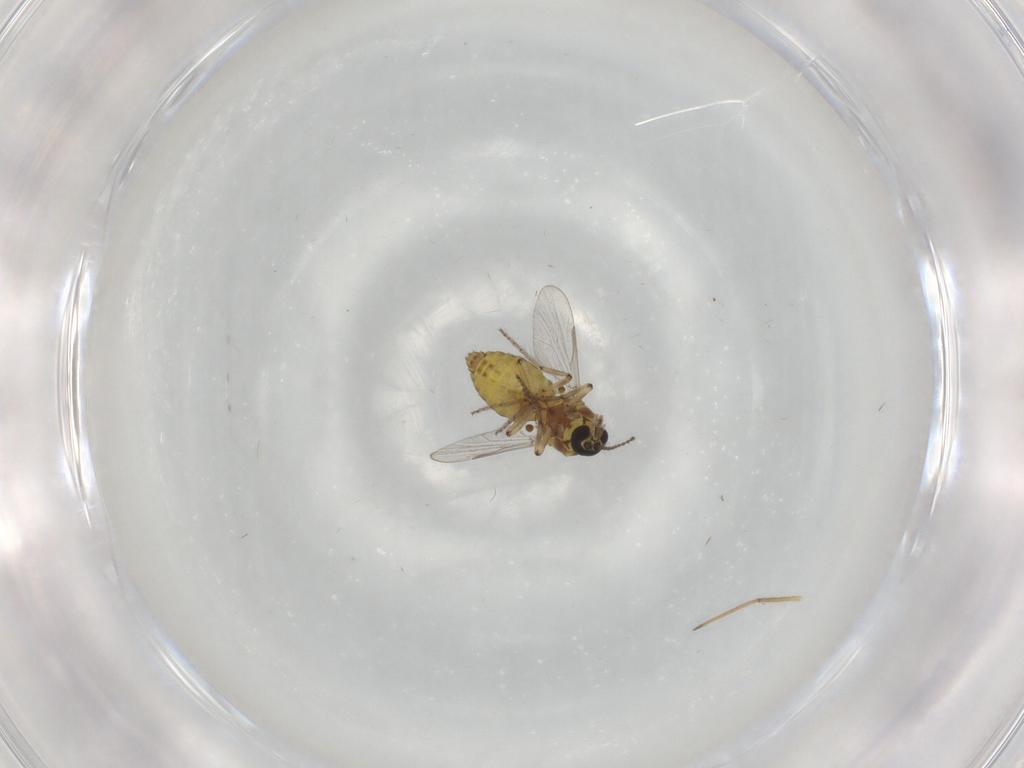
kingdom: Animalia
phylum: Arthropoda
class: Insecta
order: Diptera
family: Ceratopogonidae
